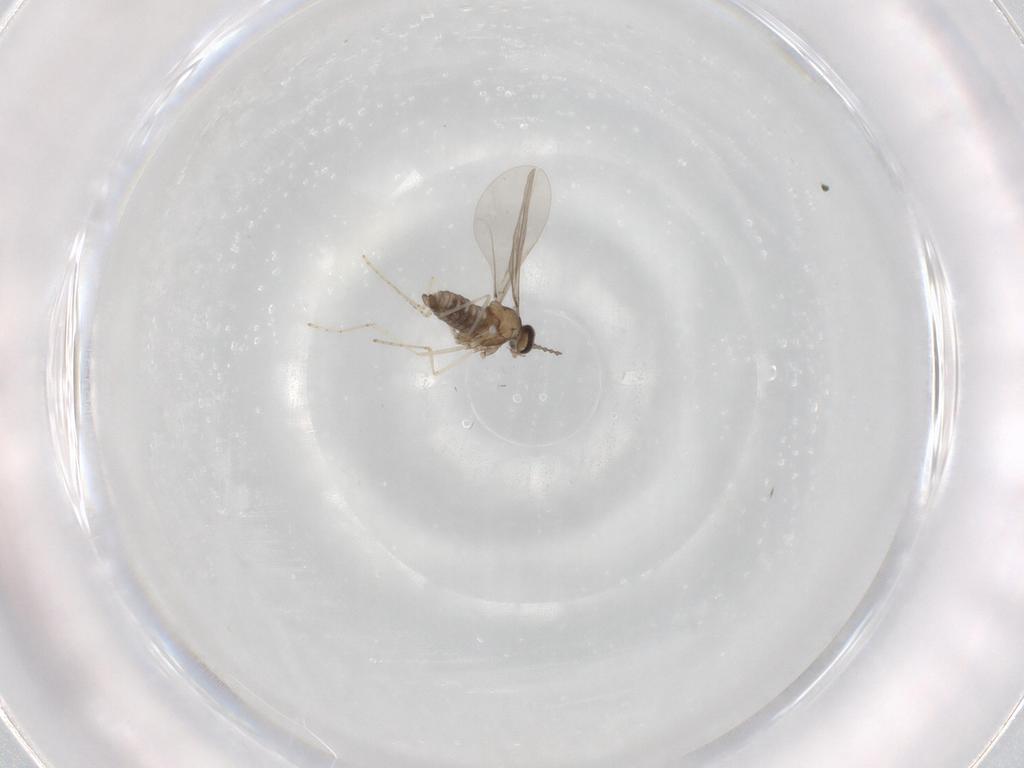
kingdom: Animalia
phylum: Arthropoda
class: Insecta
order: Diptera
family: Cecidomyiidae
